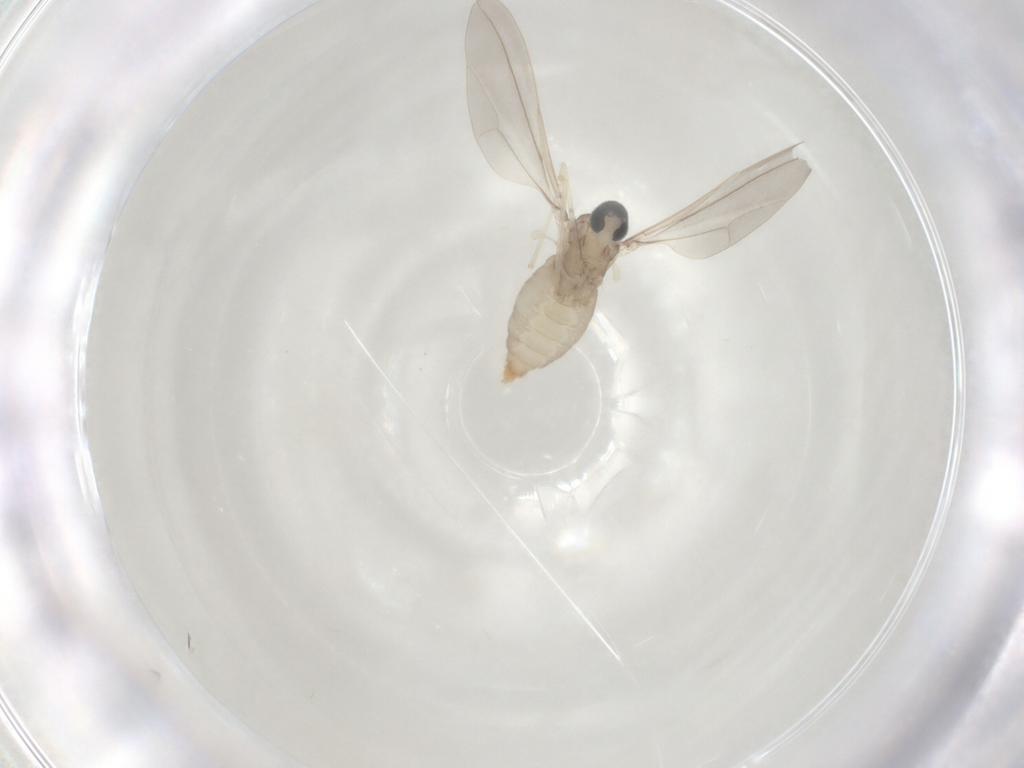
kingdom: Animalia
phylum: Arthropoda
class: Insecta
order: Diptera
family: Cecidomyiidae
